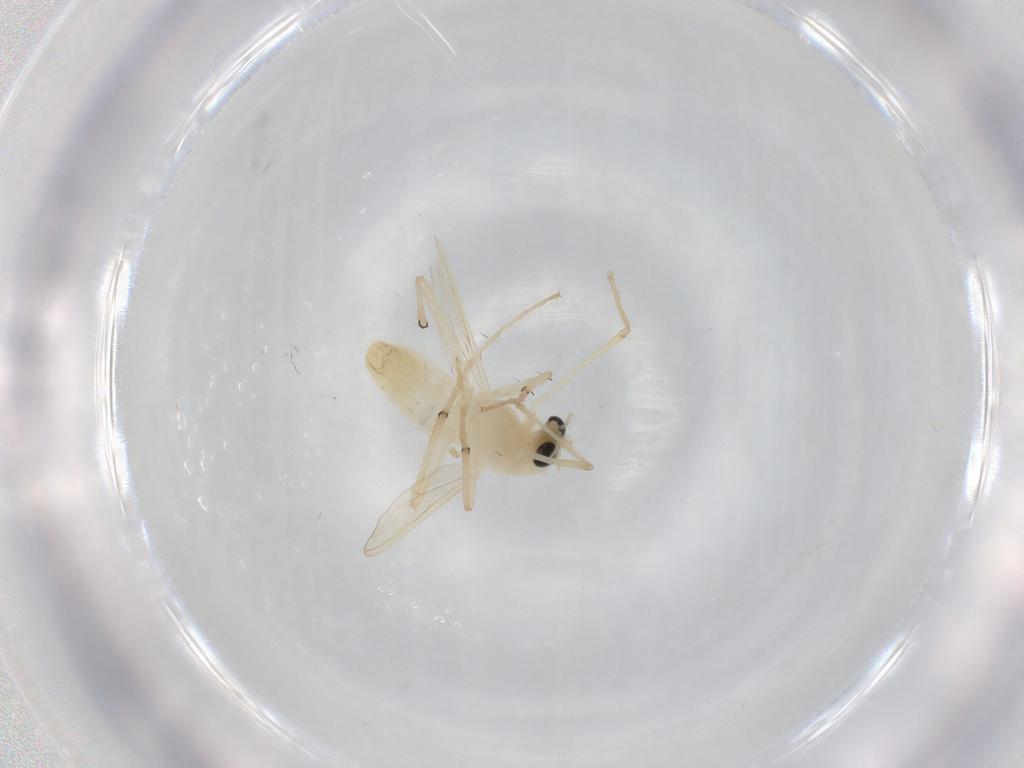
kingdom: Animalia
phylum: Arthropoda
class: Insecta
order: Diptera
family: Chironomidae
